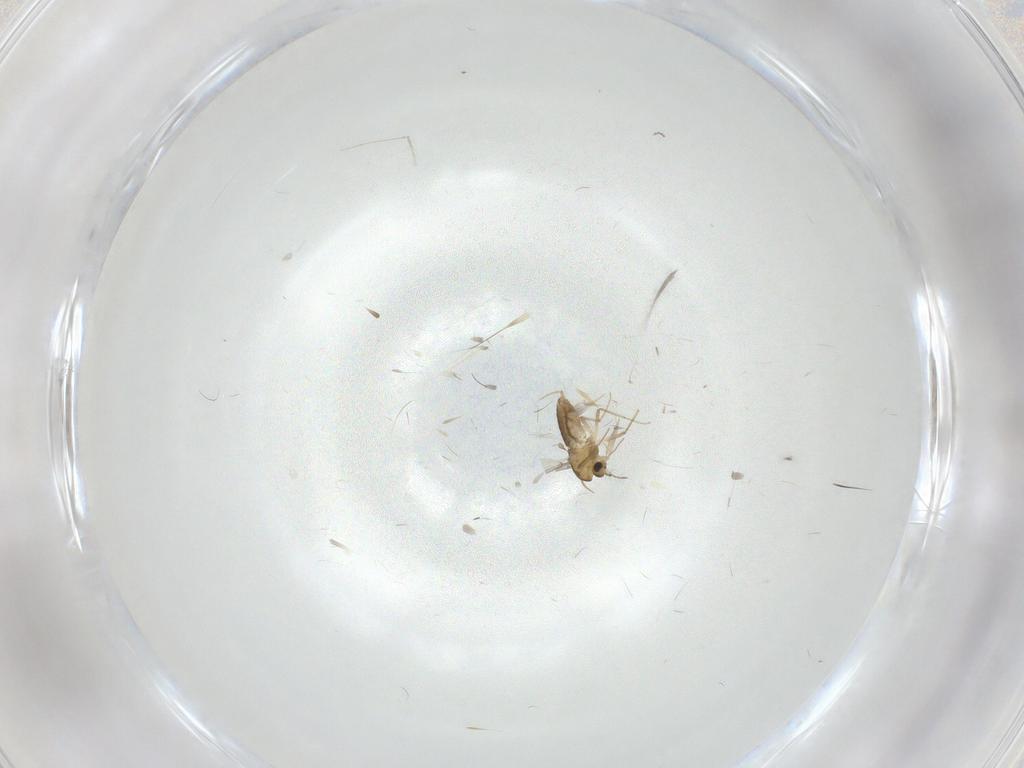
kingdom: Animalia
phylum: Arthropoda
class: Insecta
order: Diptera
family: Chironomidae
